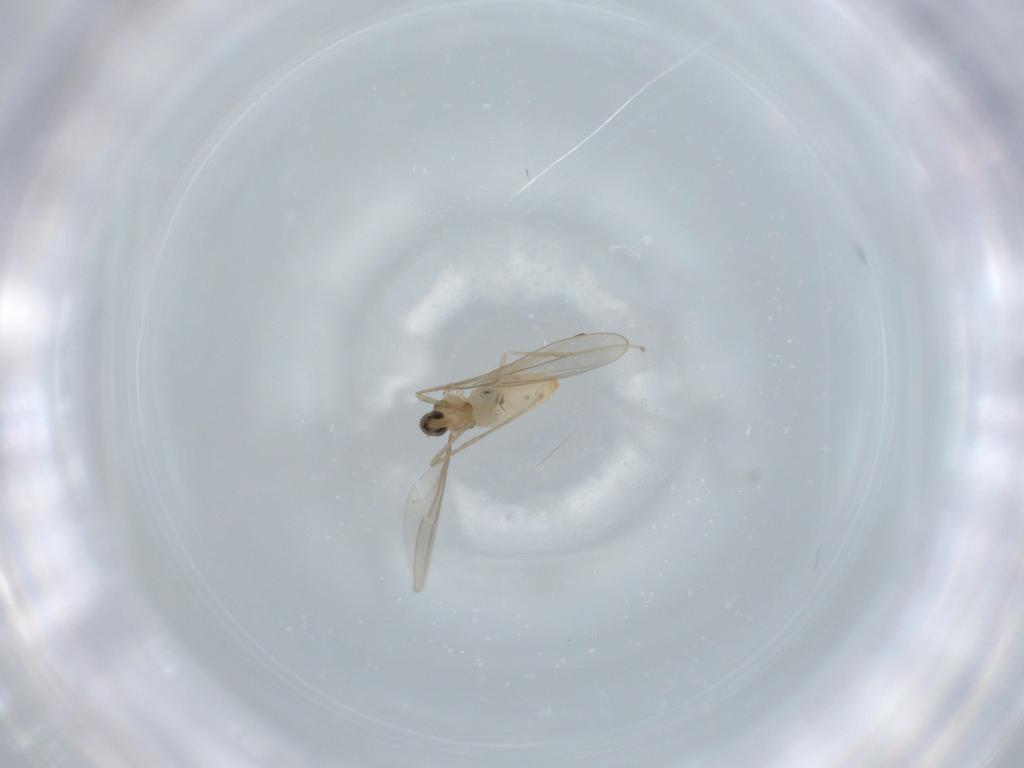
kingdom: Animalia
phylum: Arthropoda
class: Insecta
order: Diptera
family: Cecidomyiidae
